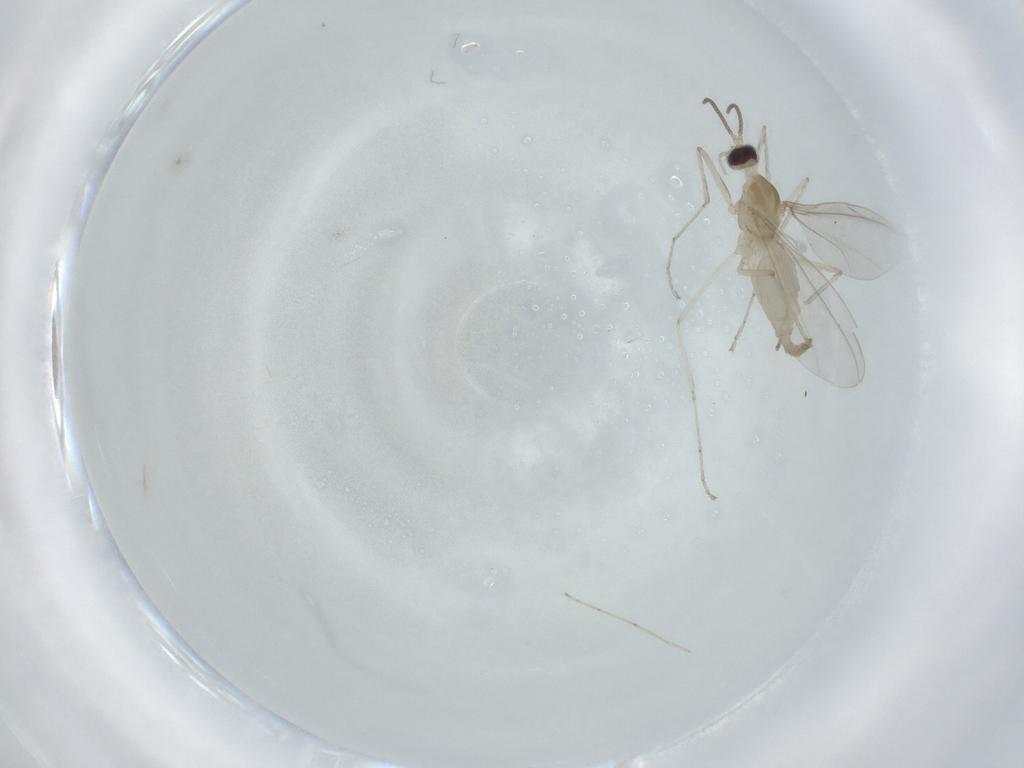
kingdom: Animalia
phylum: Arthropoda
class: Insecta
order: Diptera
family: Cecidomyiidae
